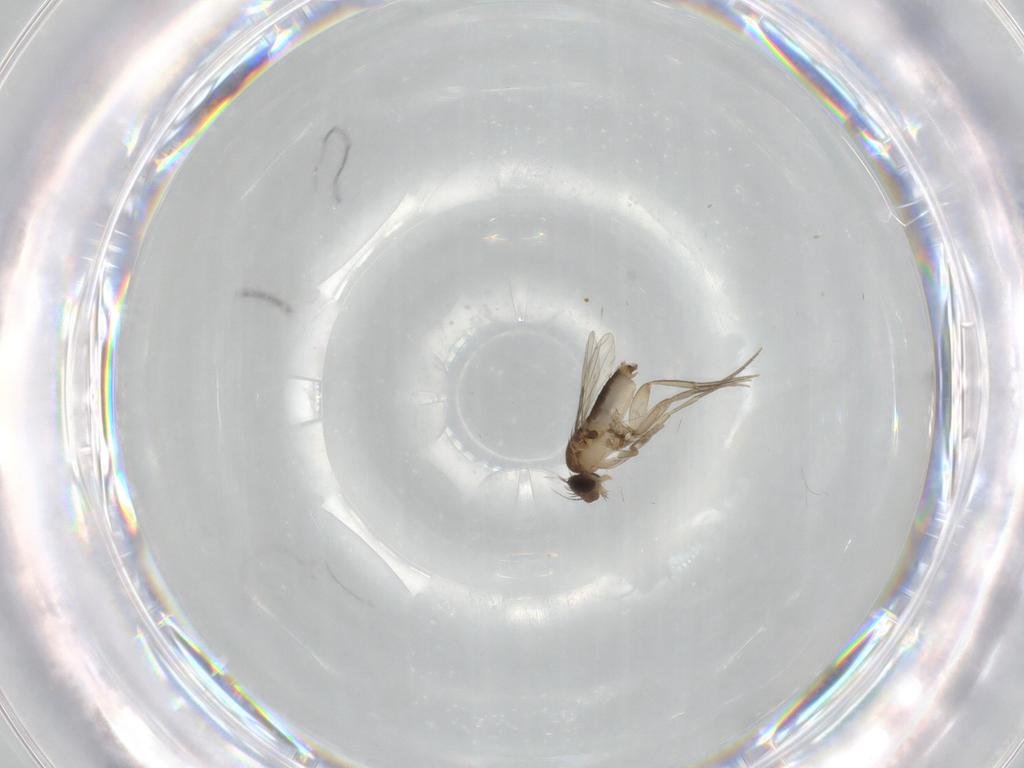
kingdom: Animalia
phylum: Arthropoda
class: Insecta
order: Diptera
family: Phoridae
